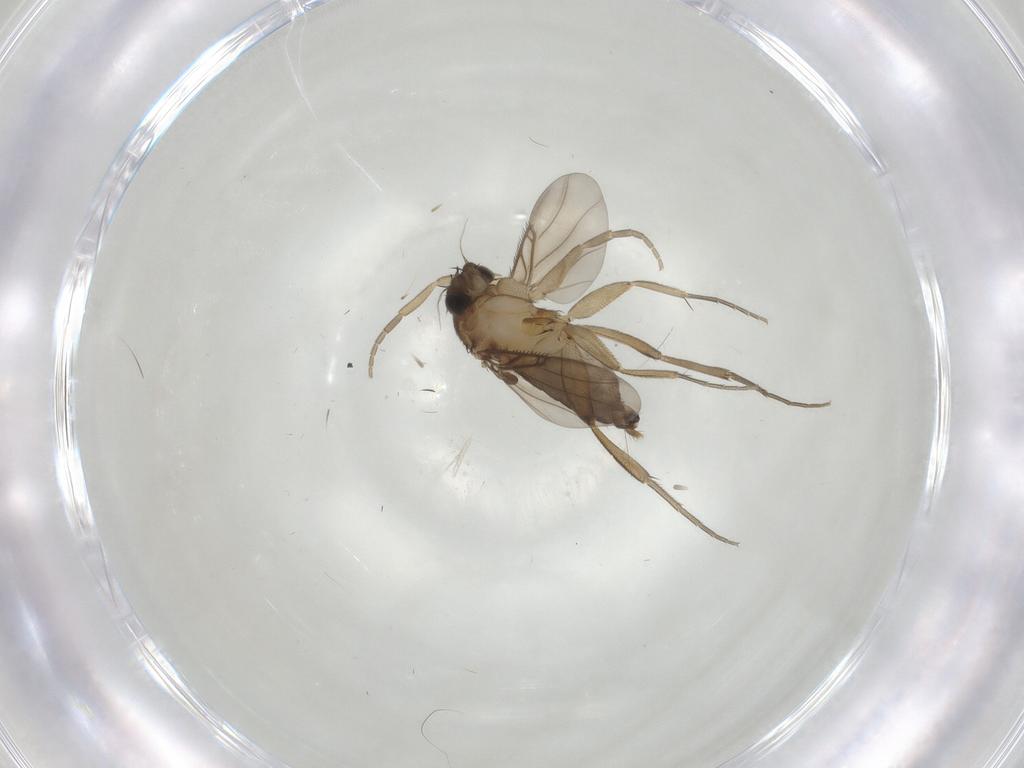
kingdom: Animalia
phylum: Arthropoda
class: Insecta
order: Diptera
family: Phoridae
